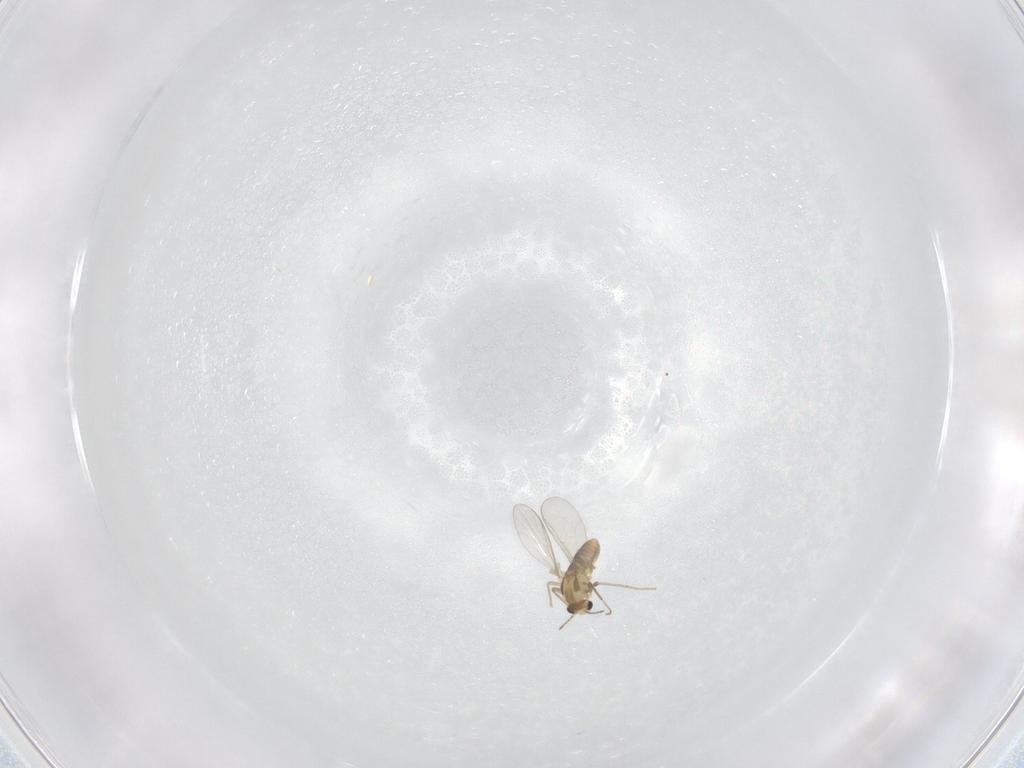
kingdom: Animalia
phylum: Arthropoda
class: Insecta
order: Diptera
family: Chironomidae
